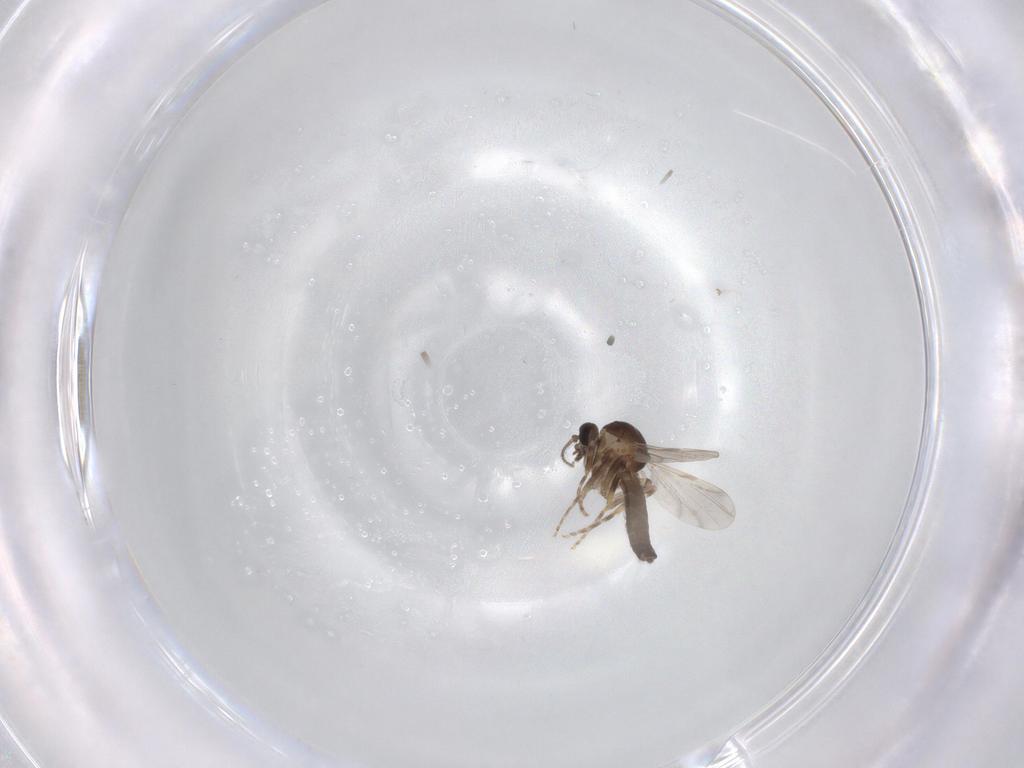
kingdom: Animalia
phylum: Arthropoda
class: Insecta
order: Diptera
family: Ceratopogonidae
